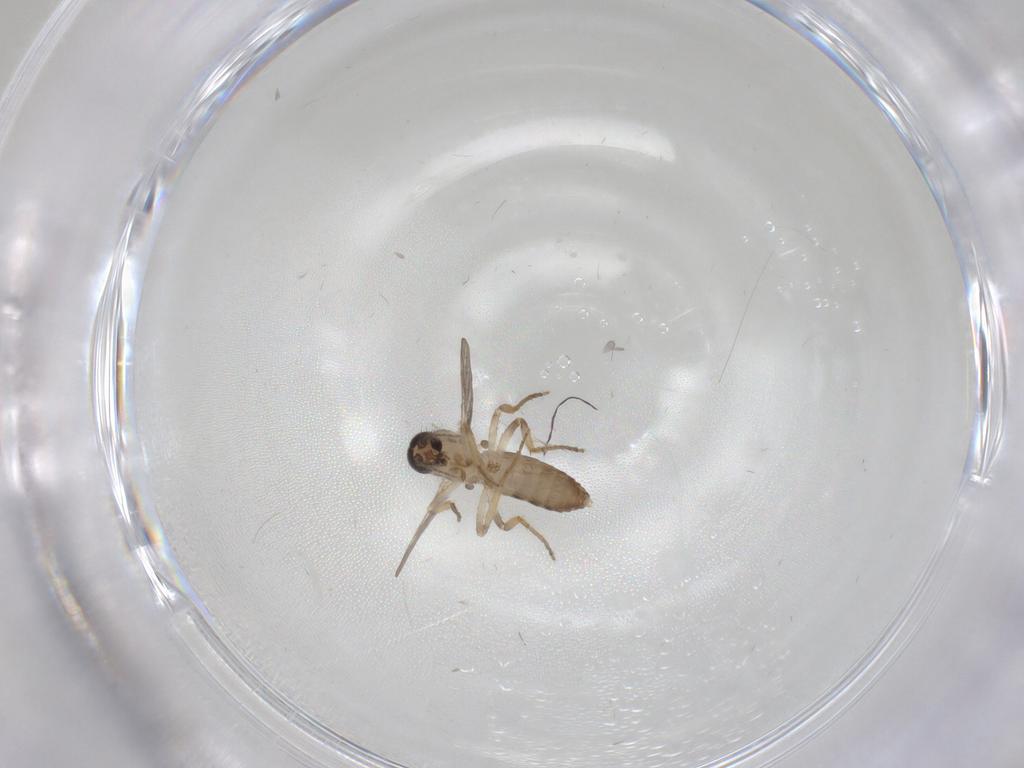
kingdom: Animalia
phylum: Arthropoda
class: Insecta
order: Diptera
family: Ceratopogonidae
